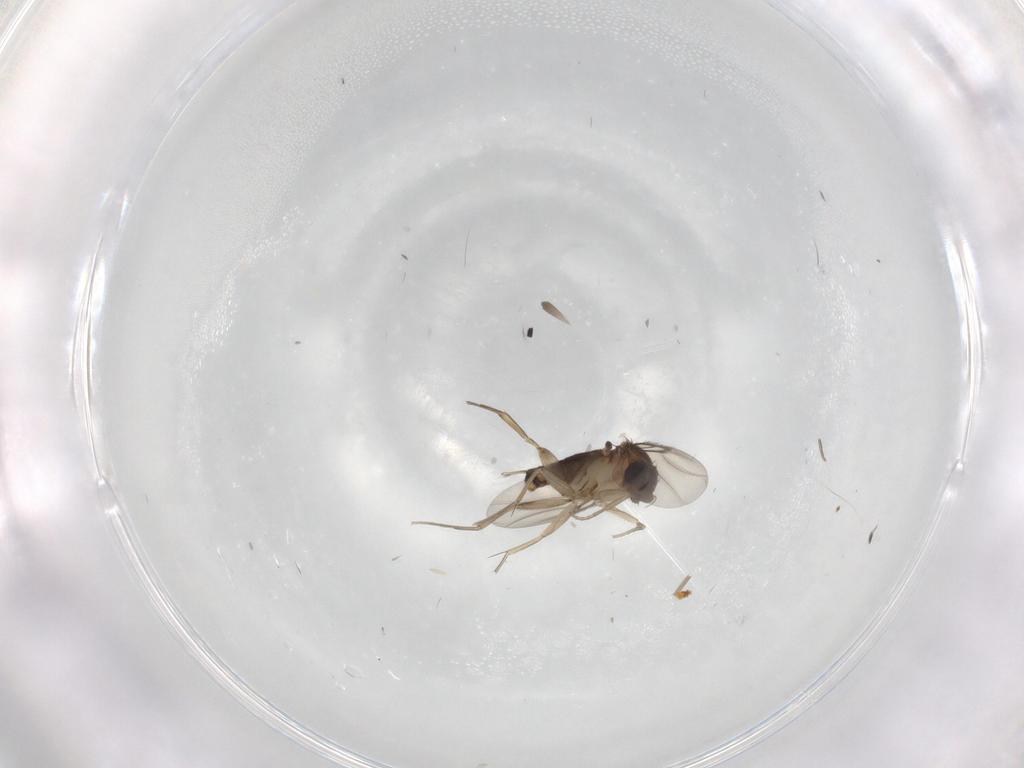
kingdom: Animalia
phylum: Arthropoda
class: Insecta
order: Diptera
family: Phoridae
